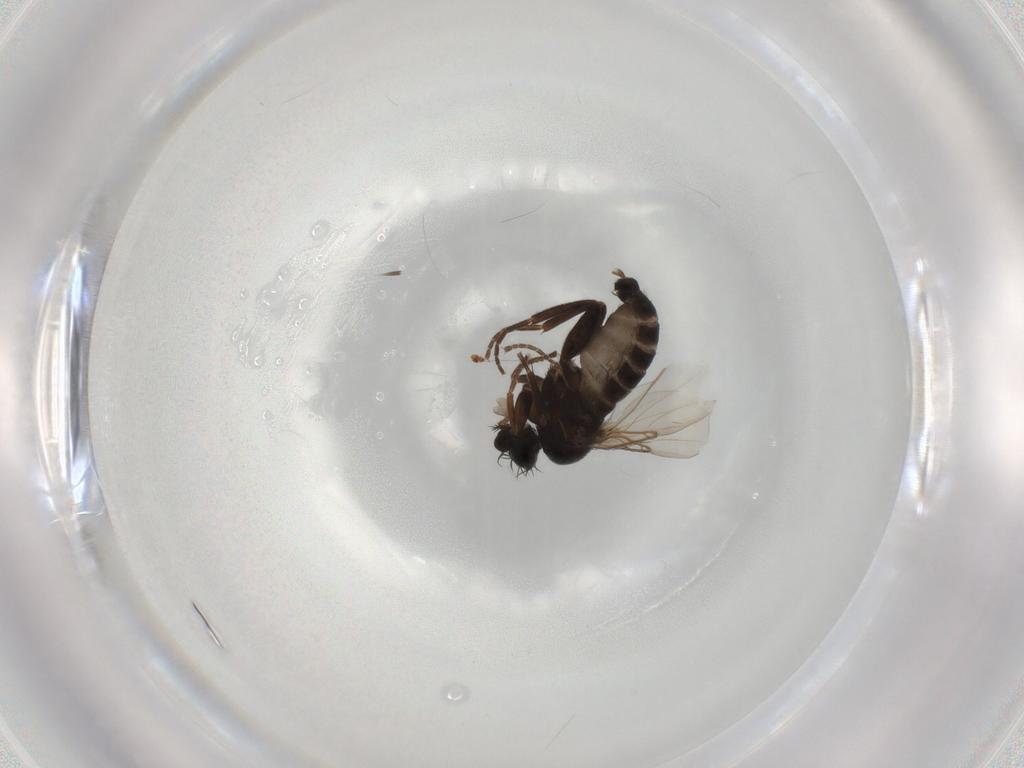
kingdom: Animalia
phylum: Arthropoda
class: Insecta
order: Diptera
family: Phoridae
